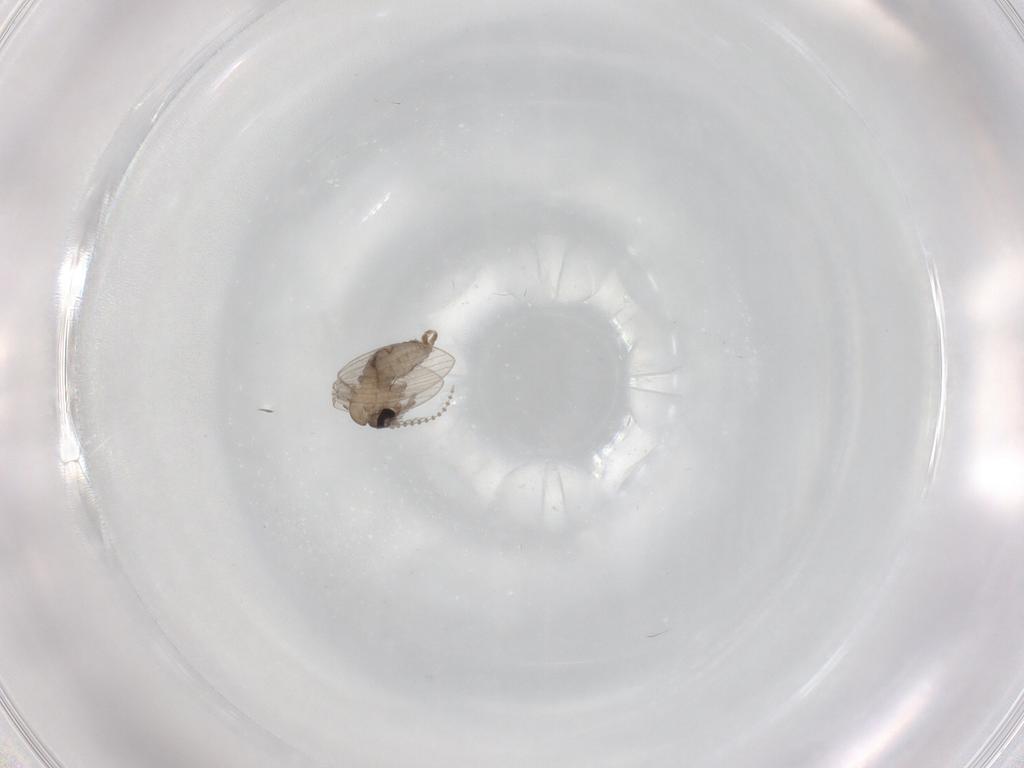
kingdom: Animalia
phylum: Arthropoda
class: Insecta
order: Diptera
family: Psychodidae
